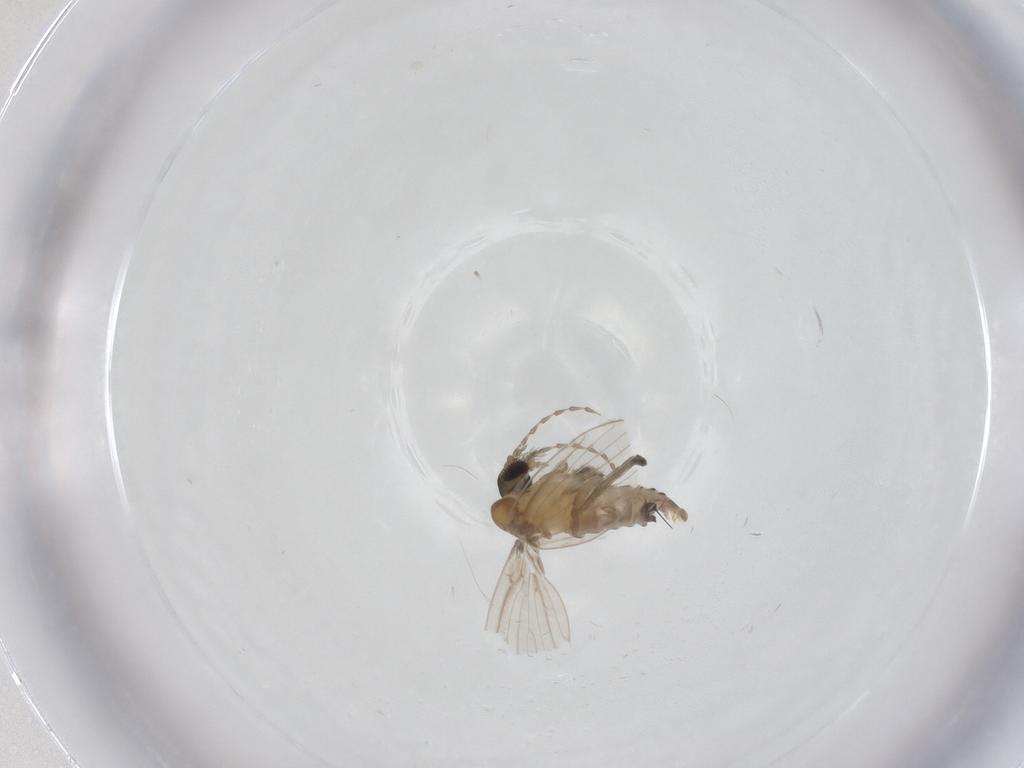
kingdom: Animalia
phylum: Arthropoda
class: Insecta
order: Diptera
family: Psychodidae
